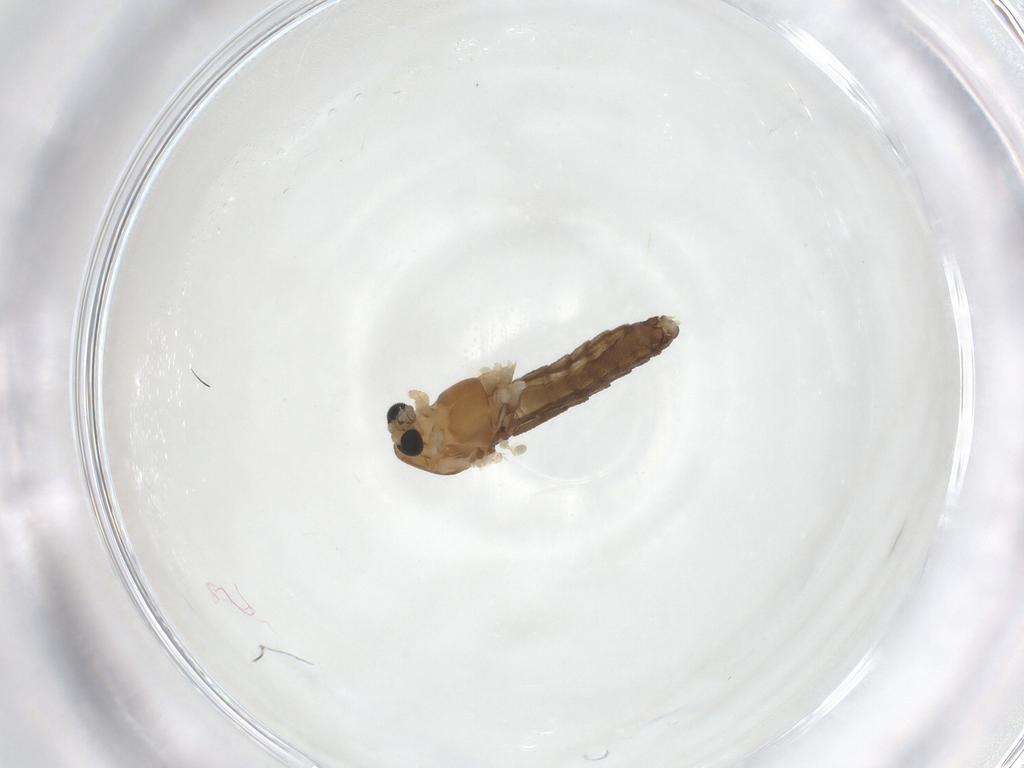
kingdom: Animalia
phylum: Arthropoda
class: Insecta
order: Diptera
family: Chironomidae
